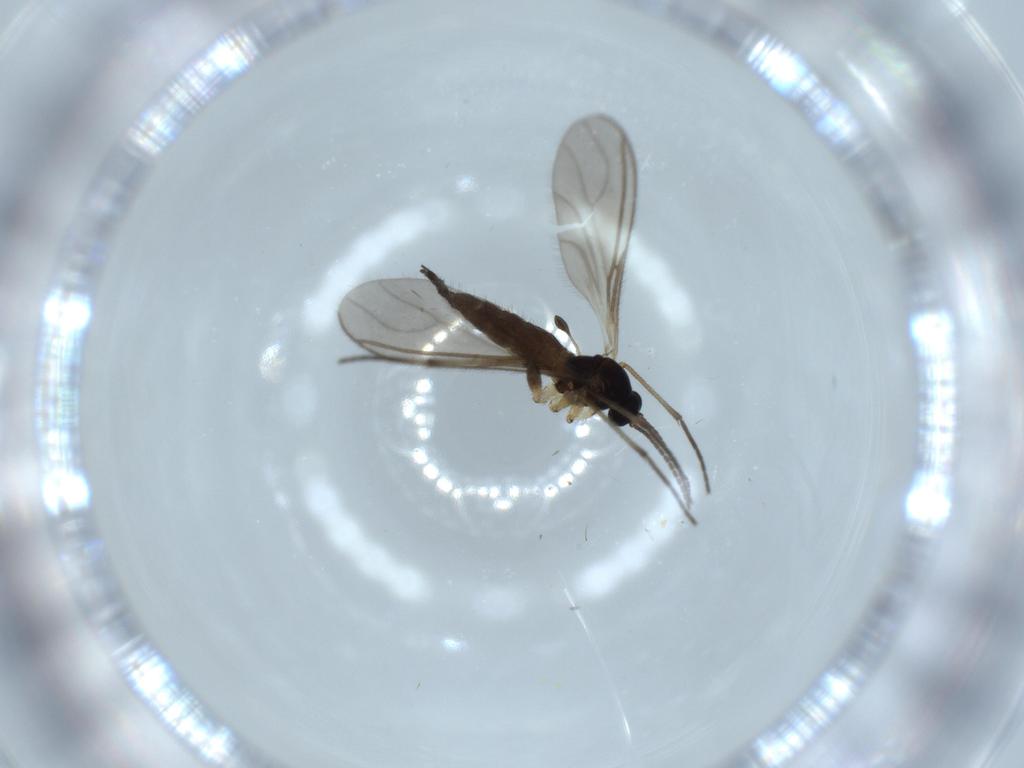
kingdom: Animalia
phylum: Arthropoda
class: Insecta
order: Diptera
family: Sciaridae
